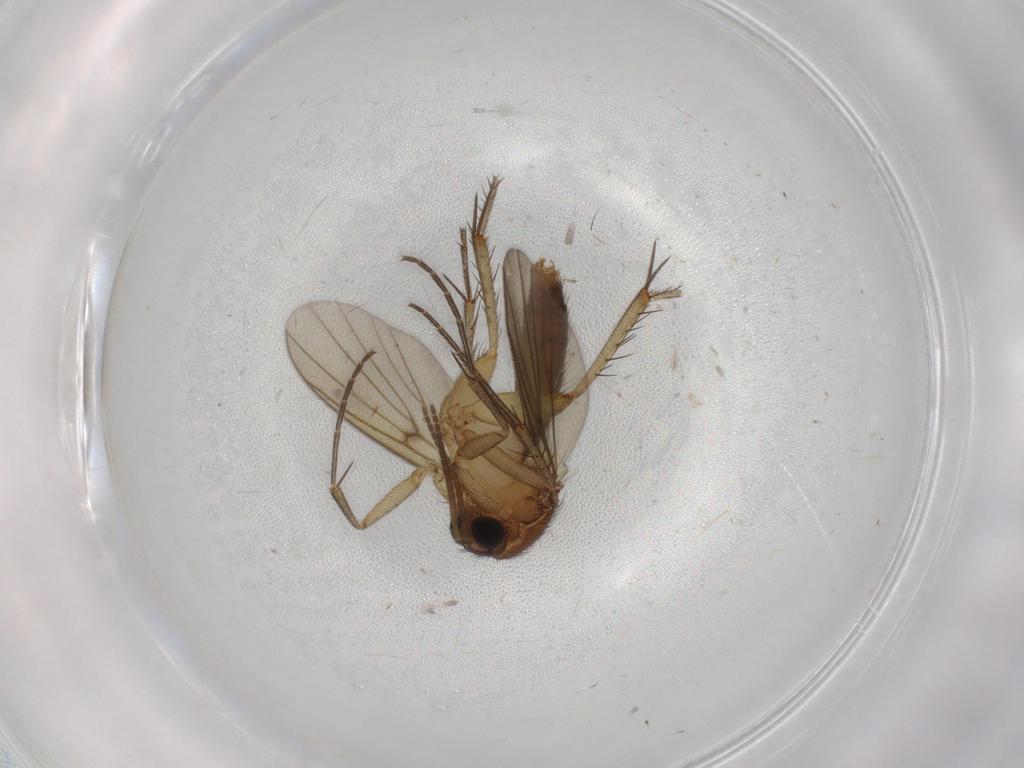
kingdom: Animalia
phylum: Arthropoda
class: Insecta
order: Diptera
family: Mycetophilidae
